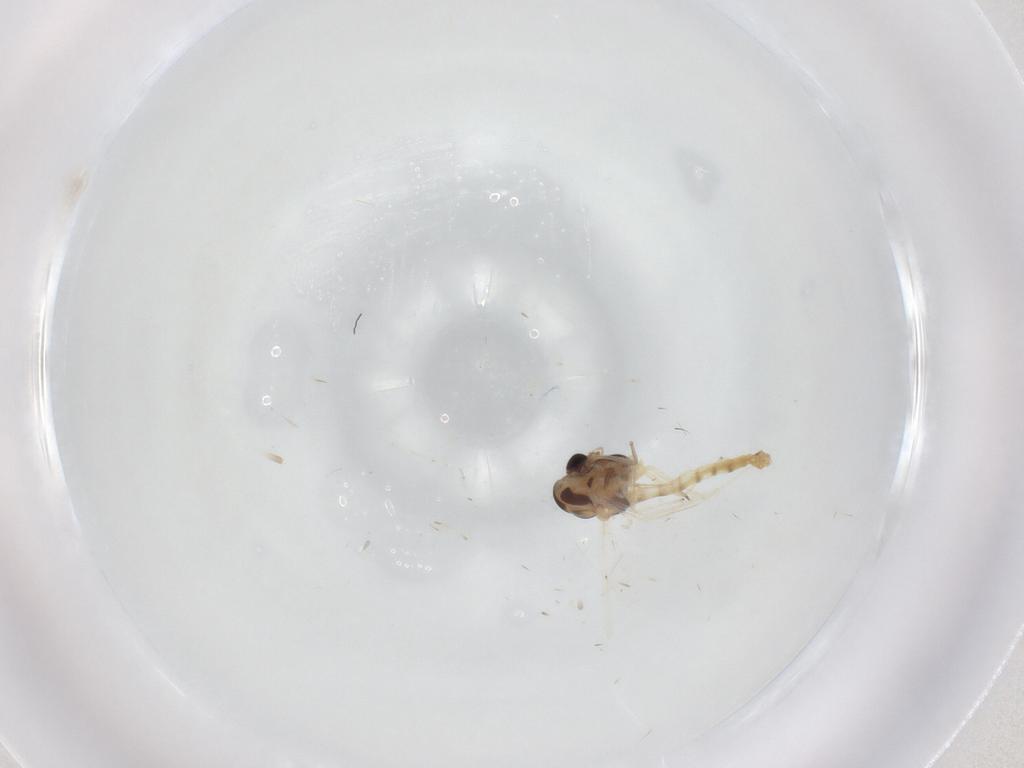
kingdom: Animalia
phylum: Arthropoda
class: Insecta
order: Diptera
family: Chironomidae
